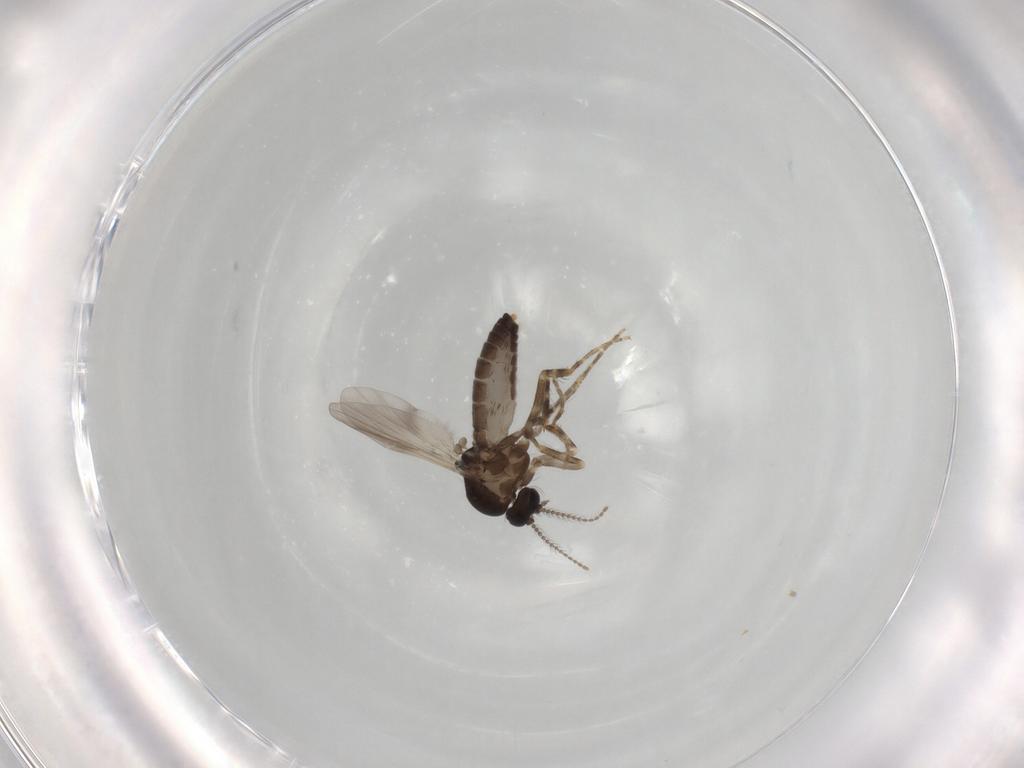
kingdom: Animalia
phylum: Arthropoda
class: Insecta
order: Diptera
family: Ceratopogonidae
